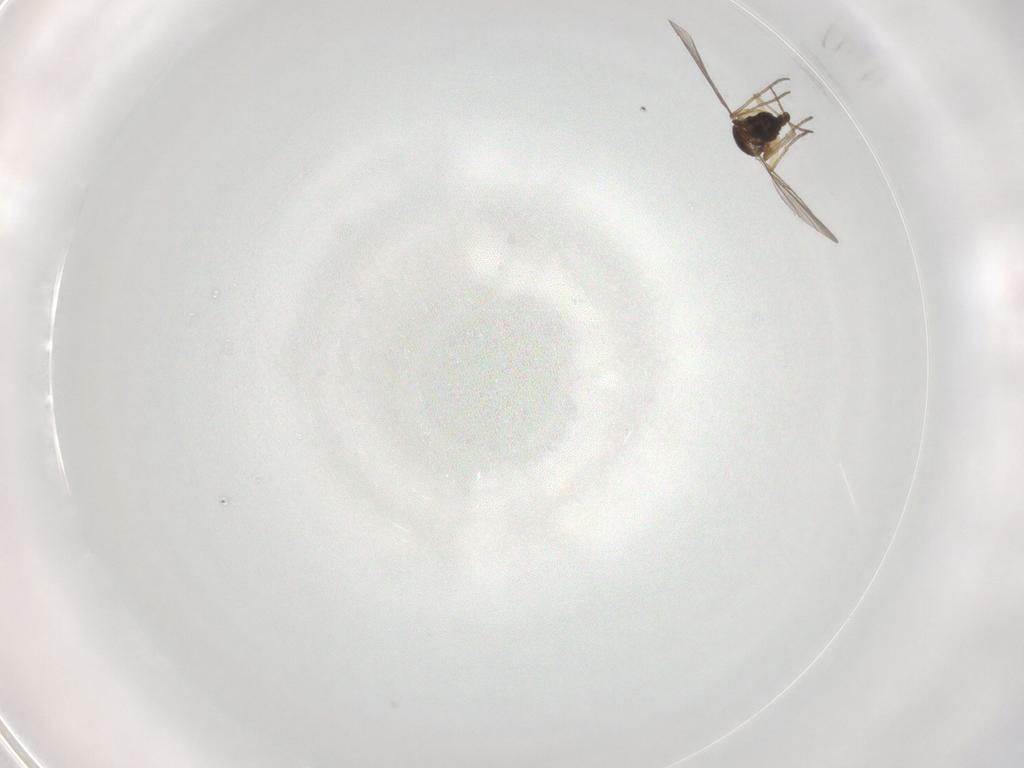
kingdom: Animalia
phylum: Arthropoda
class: Insecta
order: Diptera
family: Sciaridae
